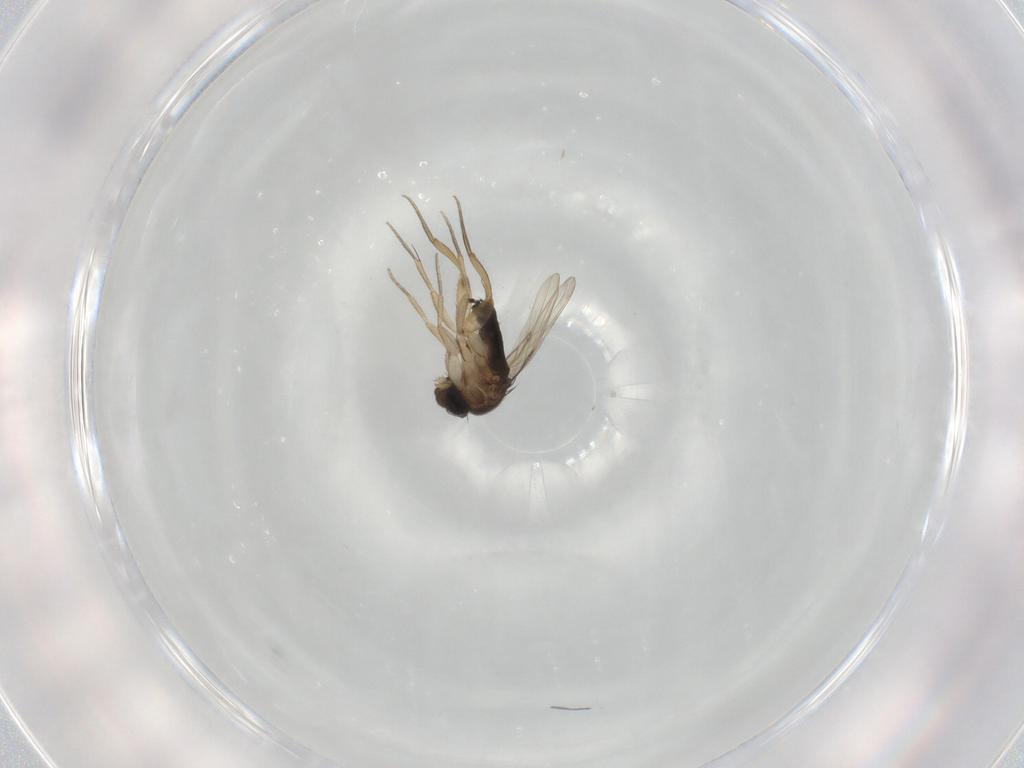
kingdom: Animalia
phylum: Arthropoda
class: Insecta
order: Diptera
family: Phoridae
